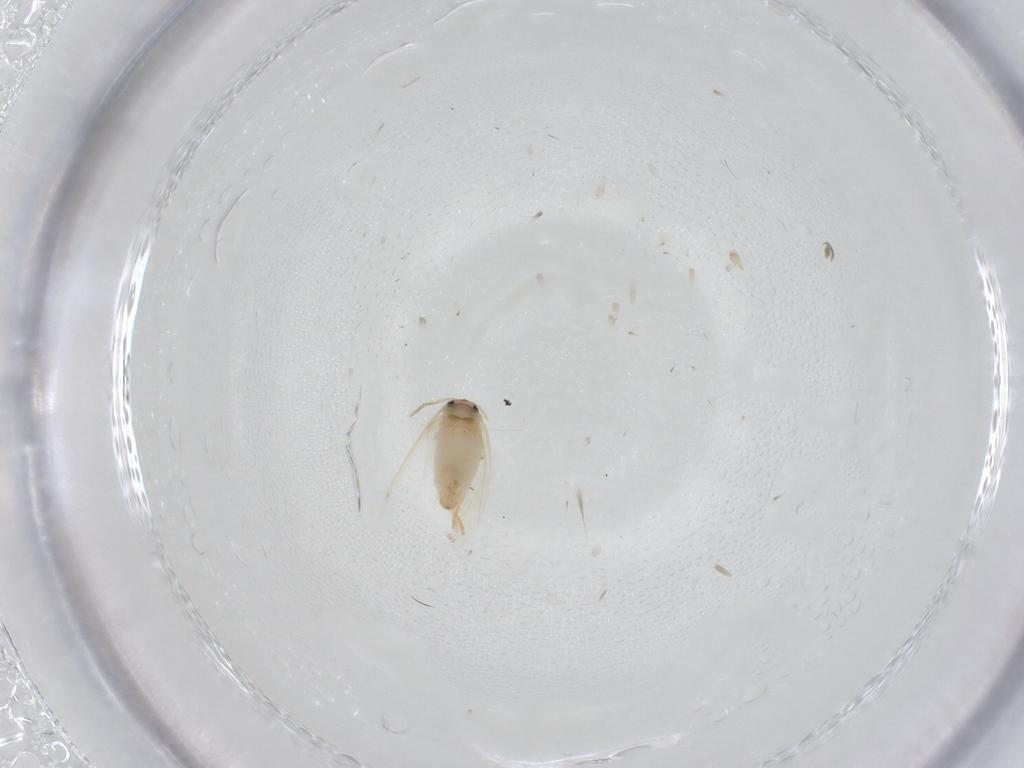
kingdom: Animalia
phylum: Arthropoda
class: Insecta
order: Lepidoptera
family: Crambidae
